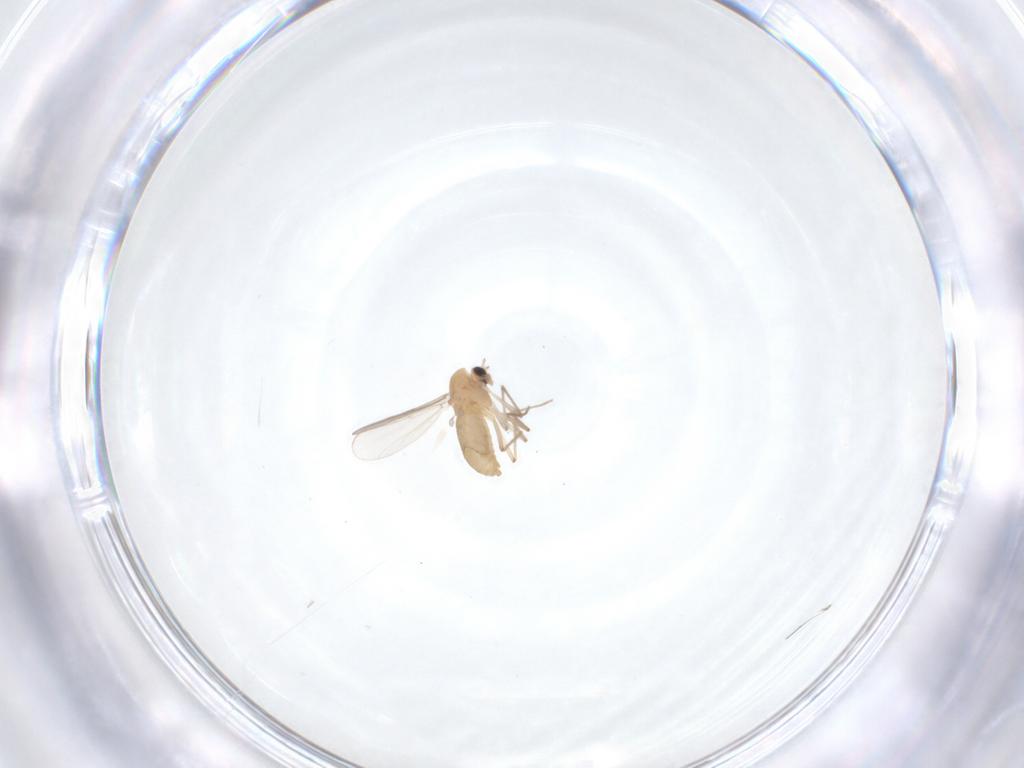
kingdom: Animalia
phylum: Arthropoda
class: Insecta
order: Diptera
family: Chironomidae
